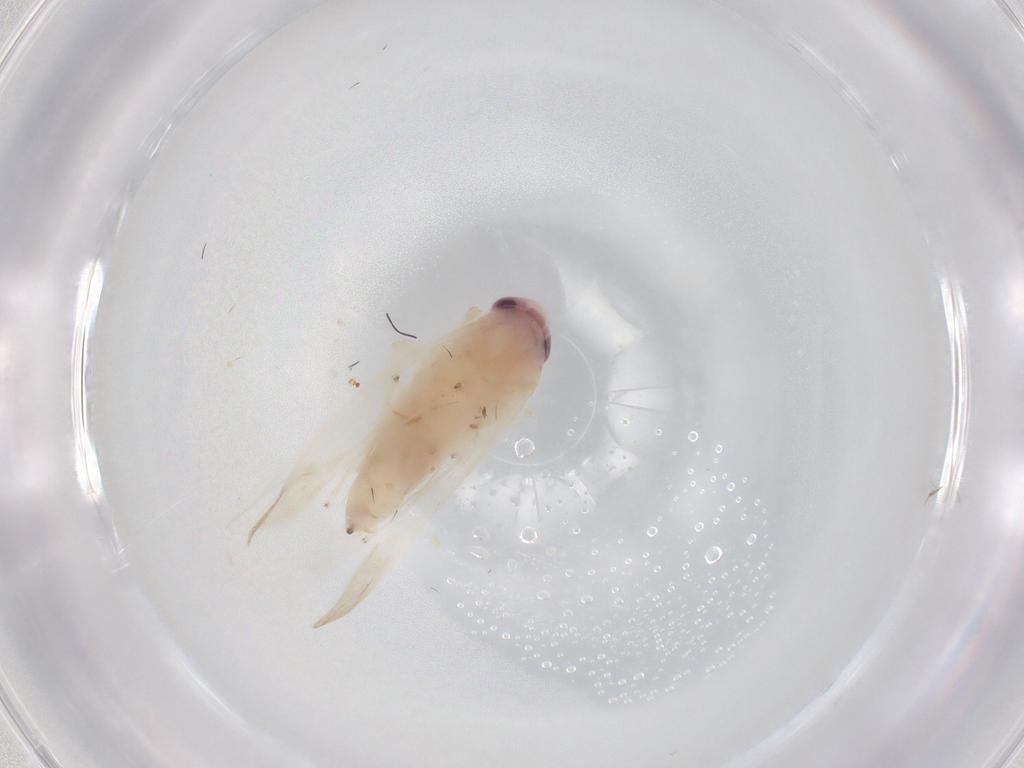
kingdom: Animalia
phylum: Arthropoda
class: Insecta
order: Hemiptera
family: Cicadellidae
